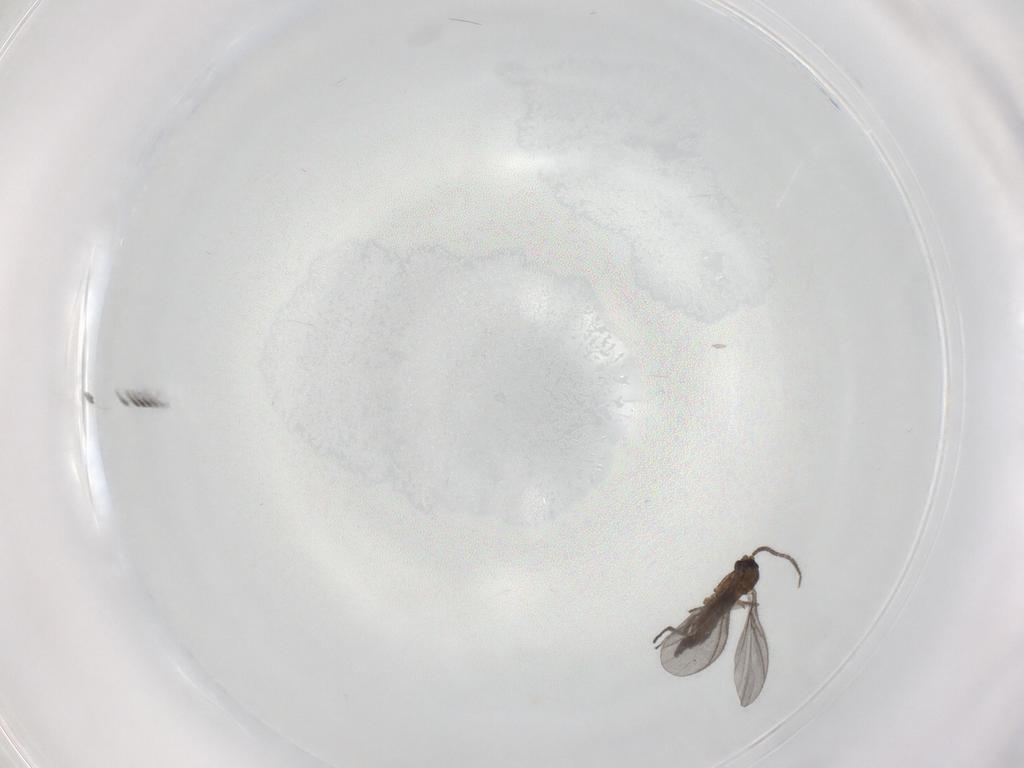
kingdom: Animalia
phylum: Arthropoda
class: Insecta
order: Diptera
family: Sciaridae
